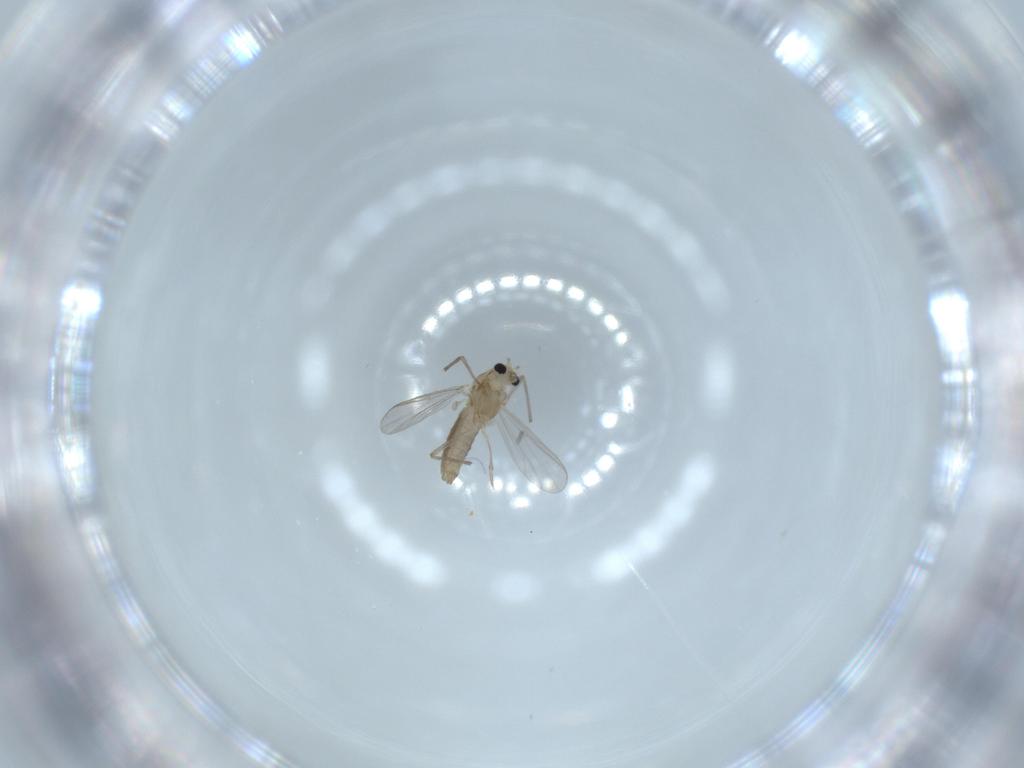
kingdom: Animalia
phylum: Arthropoda
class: Insecta
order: Diptera
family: Chironomidae
